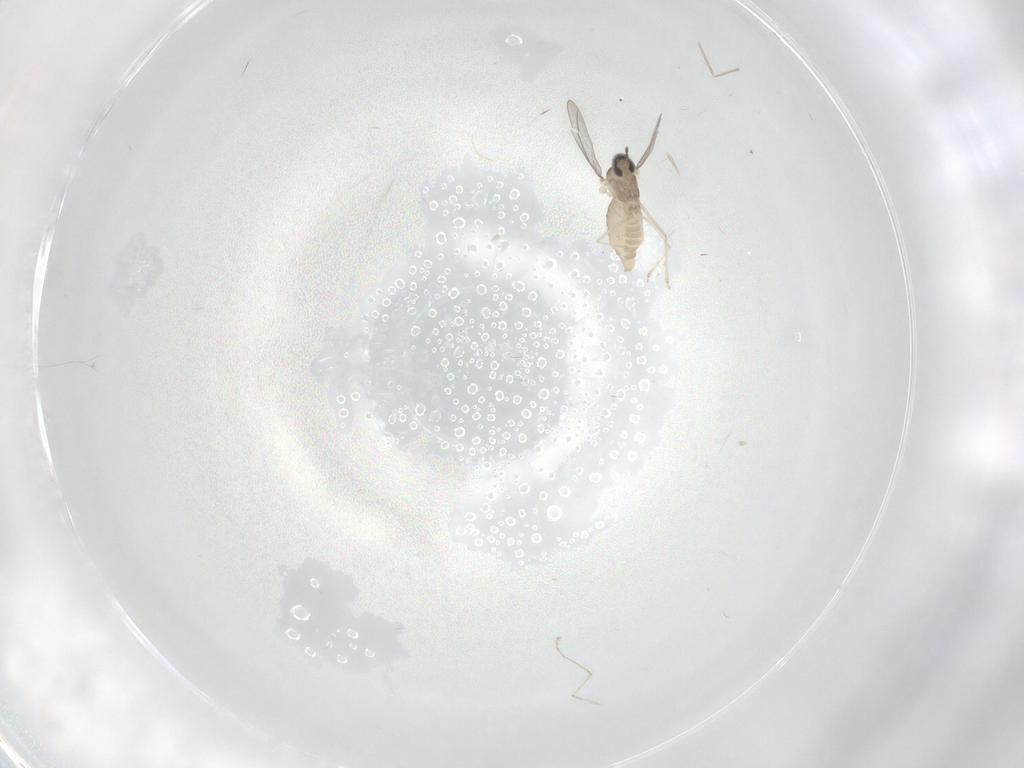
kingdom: Animalia
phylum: Arthropoda
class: Insecta
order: Diptera
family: Cecidomyiidae
